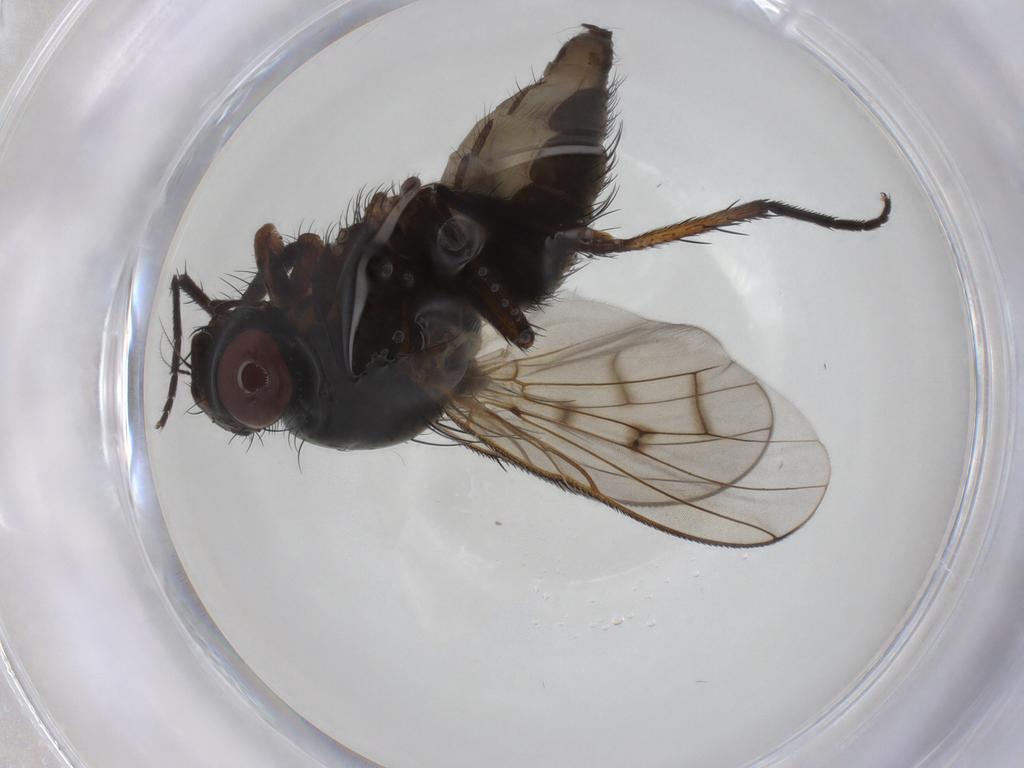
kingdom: Animalia
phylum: Arthropoda
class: Insecta
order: Diptera
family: Anthomyiidae
